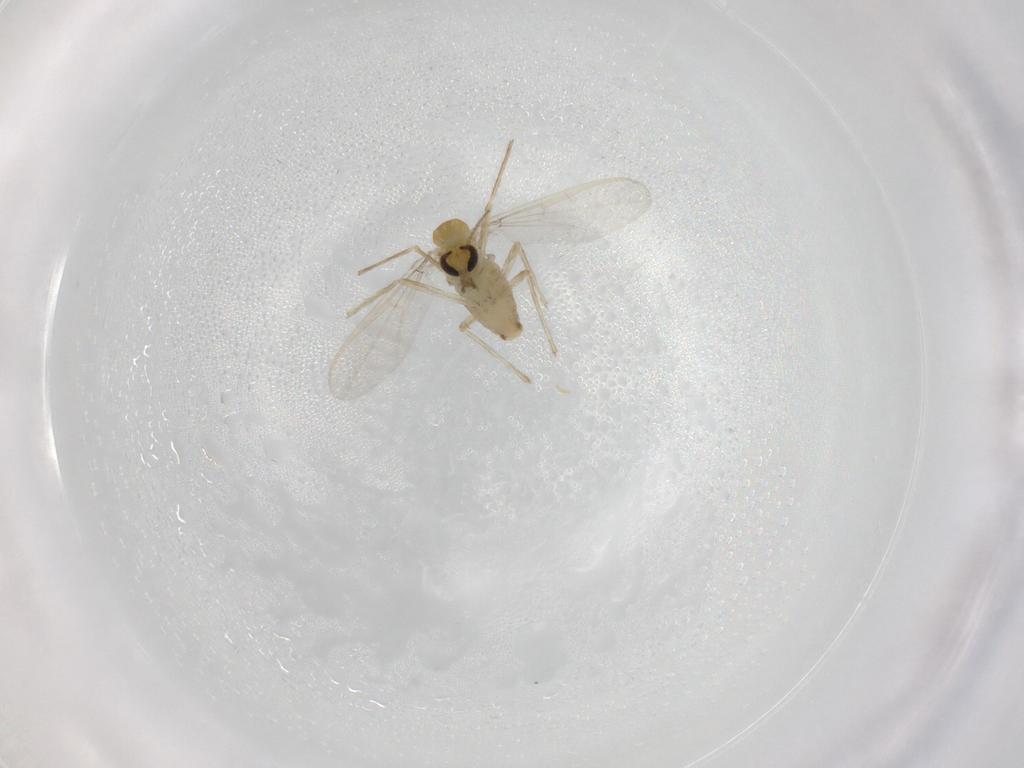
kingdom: Animalia
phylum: Arthropoda
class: Insecta
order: Diptera
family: Chironomidae
